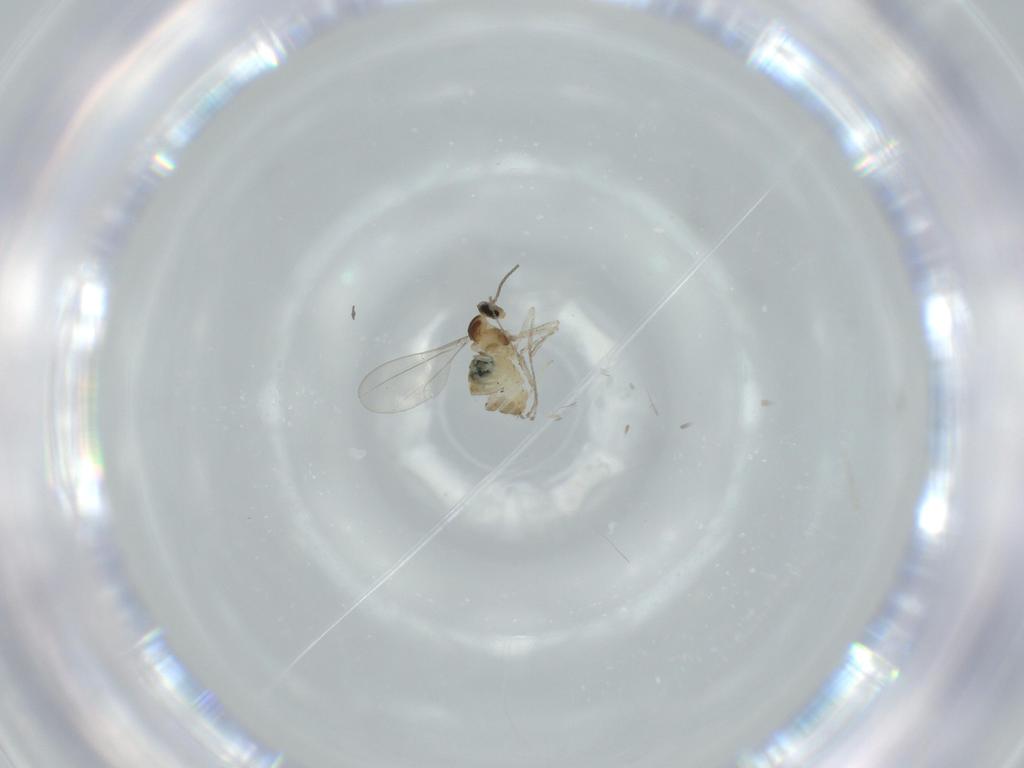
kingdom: Animalia
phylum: Arthropoda
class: Insecta
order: Diptera
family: Cecidomyiidae
